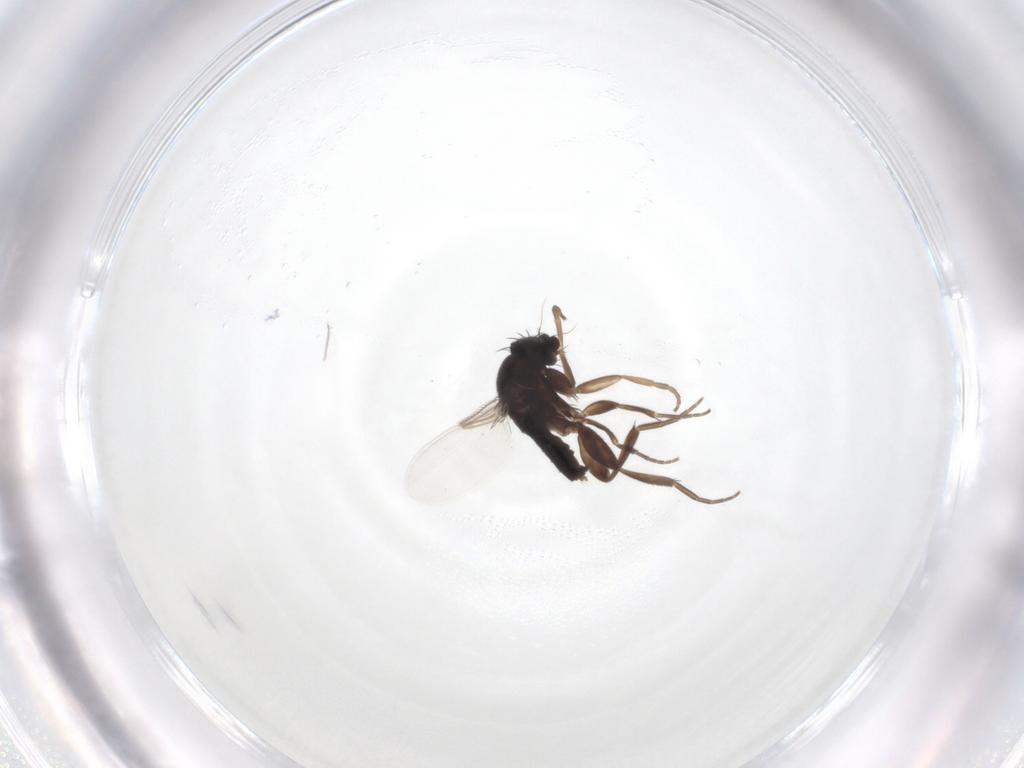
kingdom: Animalia
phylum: Arthropoda
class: Insecta
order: Diptera
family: Phoridae
